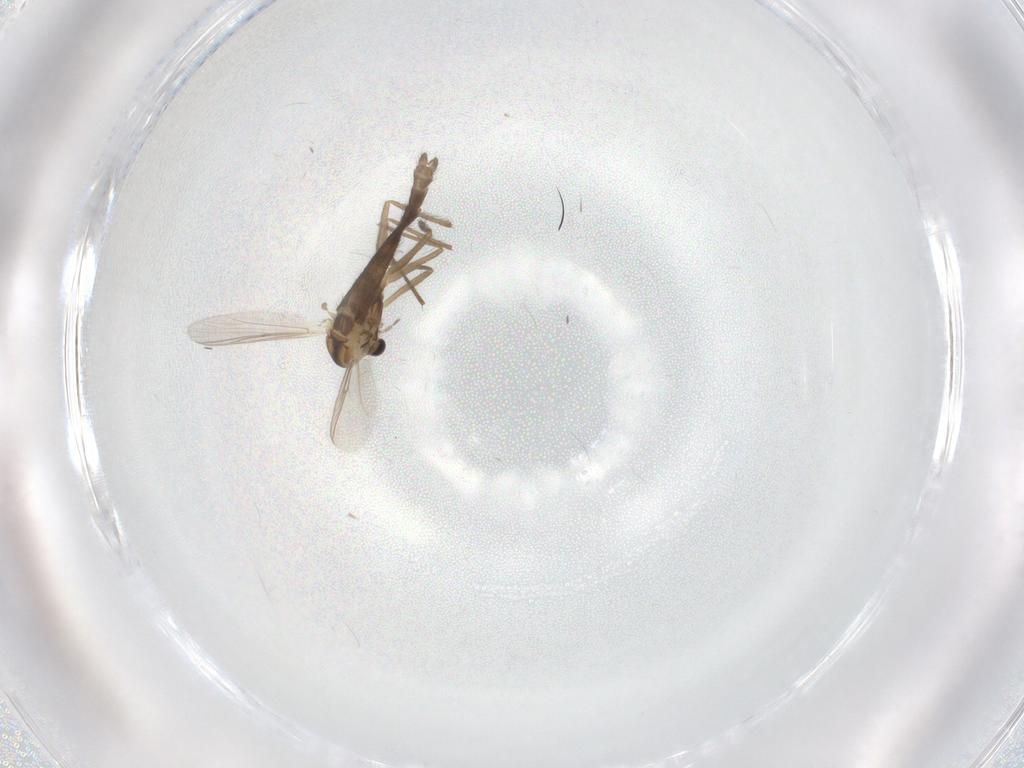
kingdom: Animalia
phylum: Arthropoda
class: Insecta
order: Diptera
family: Chironomidae
